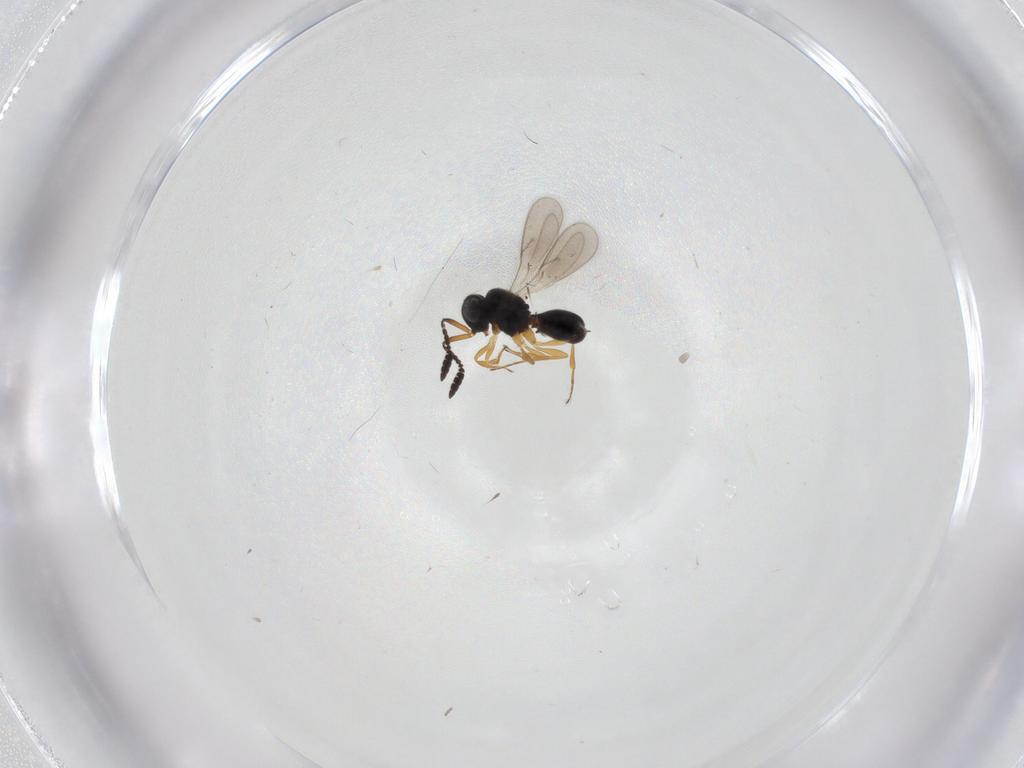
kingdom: Animalia
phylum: Arthropoda
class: Insecta
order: Hymenoptera
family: Scelionidae
